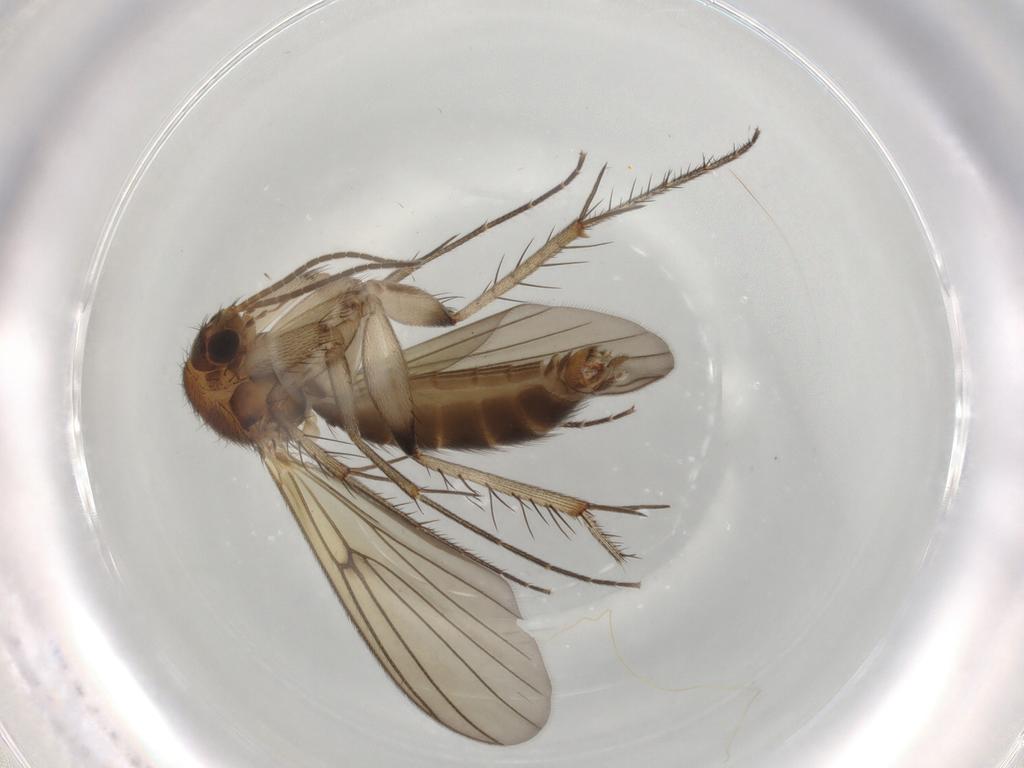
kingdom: Animalia
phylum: Arthropoda
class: Insecta
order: Diptera
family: Mycetophilidae
